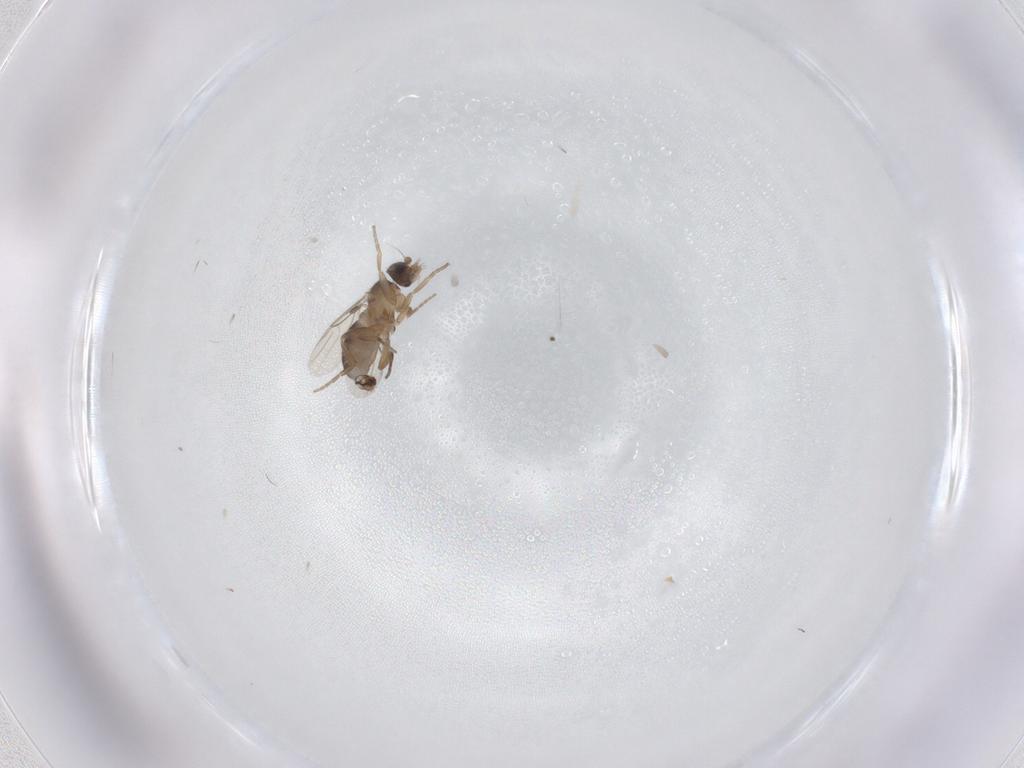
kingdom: Animalia
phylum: Arthropoda
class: Insecta
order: Diptera
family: Phoridae
